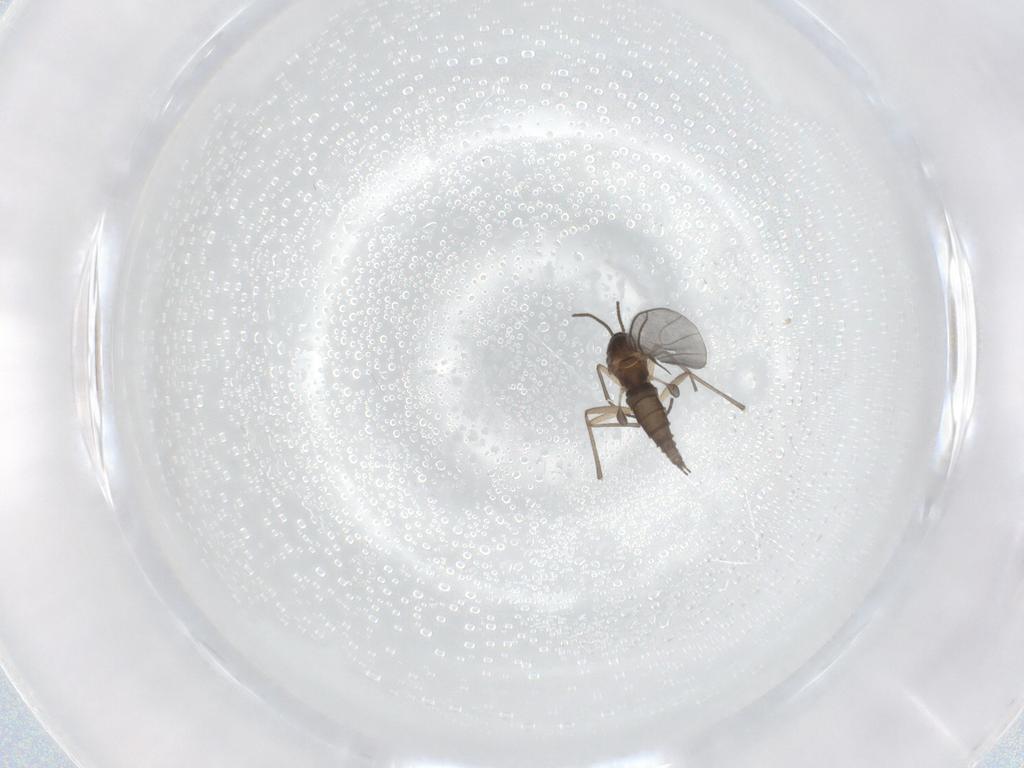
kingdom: Animalia
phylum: Arthropoda
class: Insecta
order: Diptera
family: Sciaridae
